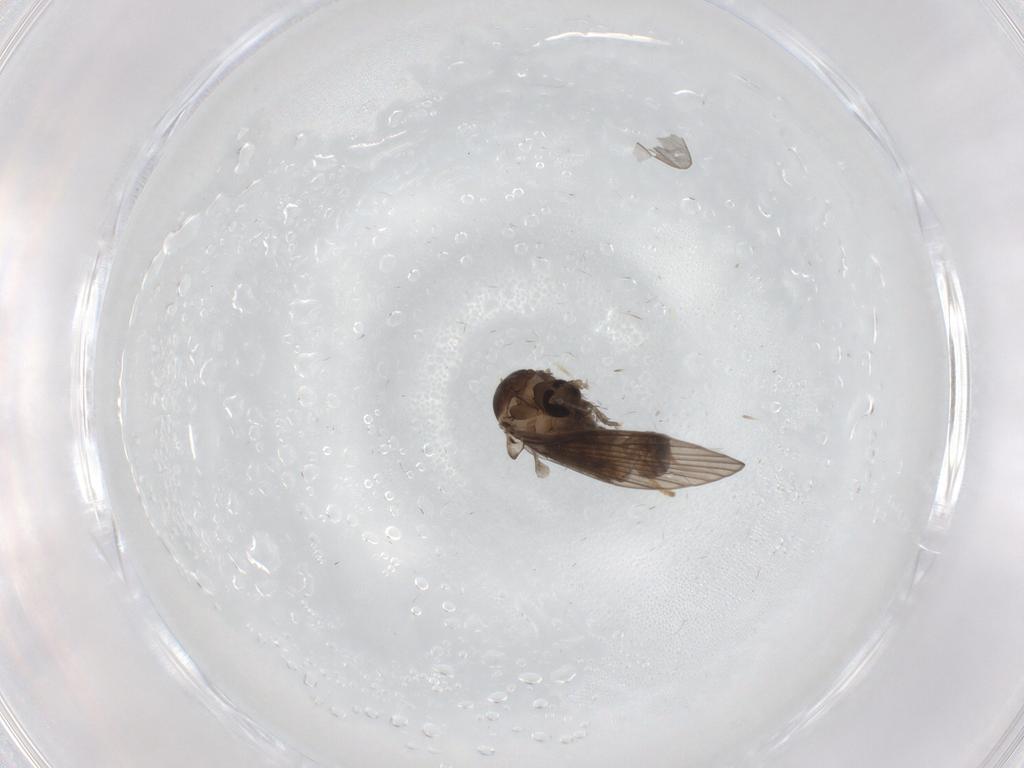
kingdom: Animalia
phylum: Arthropoda
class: Insecta
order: Diptera
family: Psychodidae
